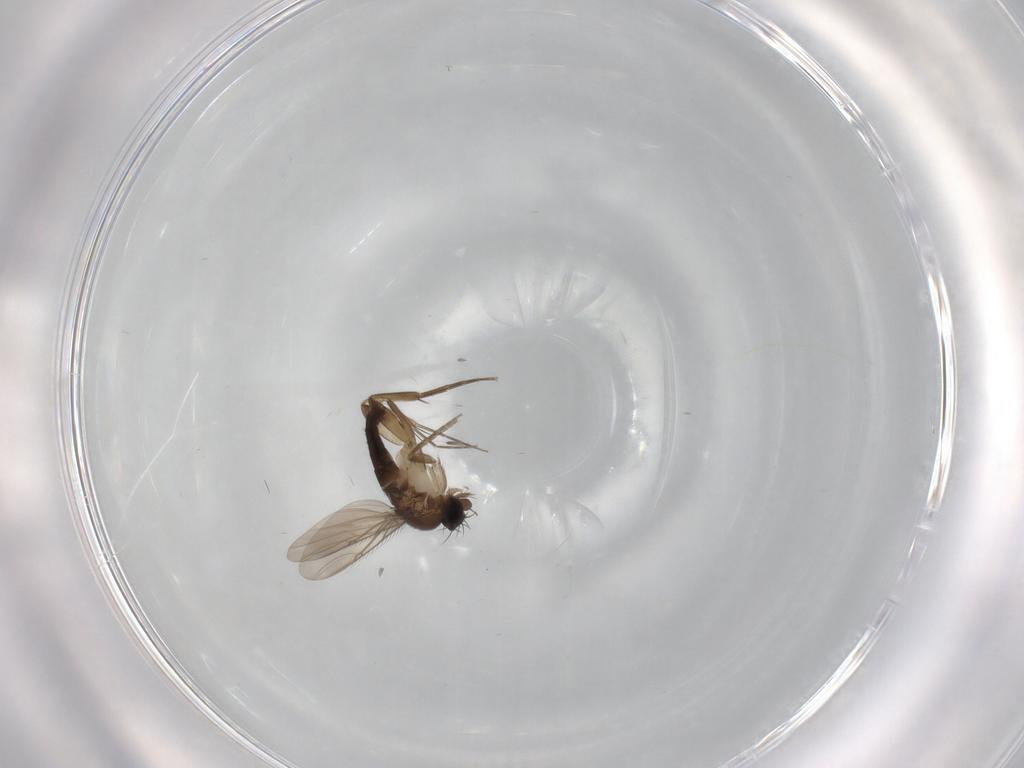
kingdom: Animalia
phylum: Arthropoda
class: Insecta
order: Diptera
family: Phoridae
